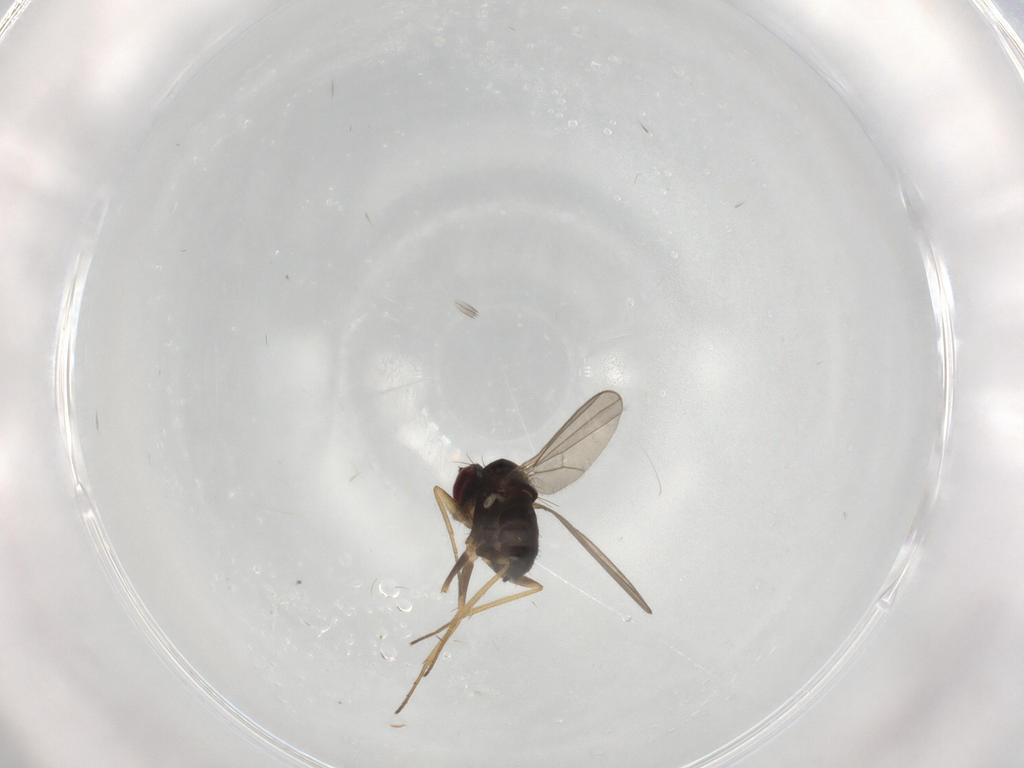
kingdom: Animalia
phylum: Arthropoda
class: Insecta
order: Diptera
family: Dolichopodidae
